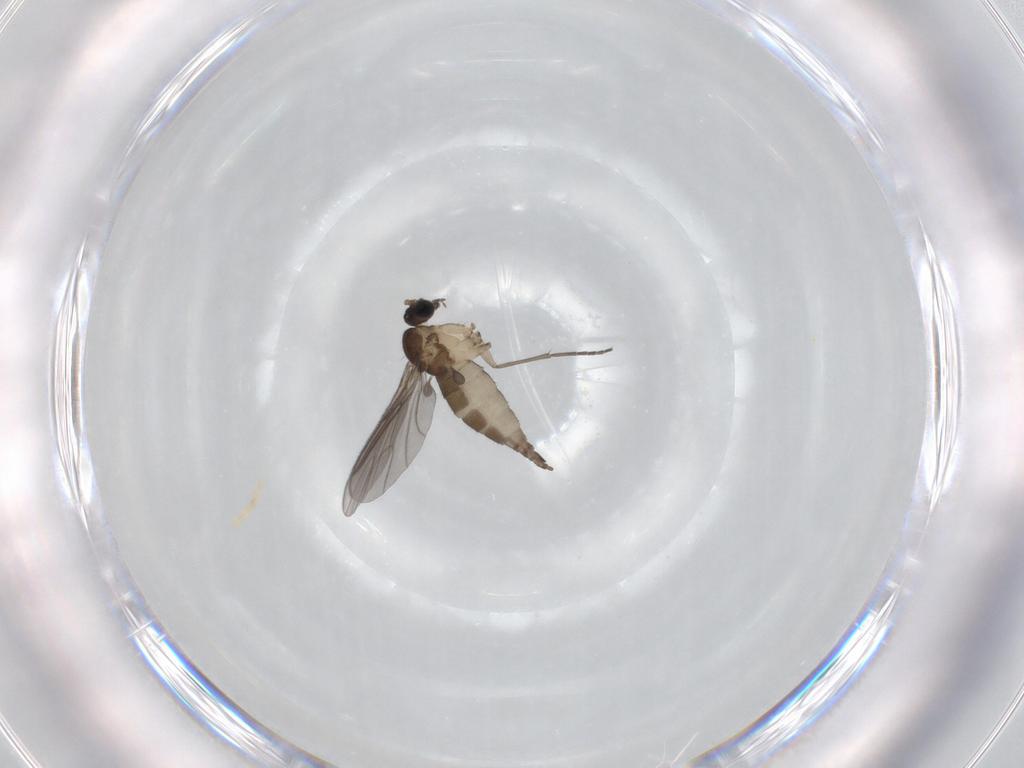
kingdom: Animalia
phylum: Arthropoda
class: Insecta
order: Diptera
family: Sciaridae
